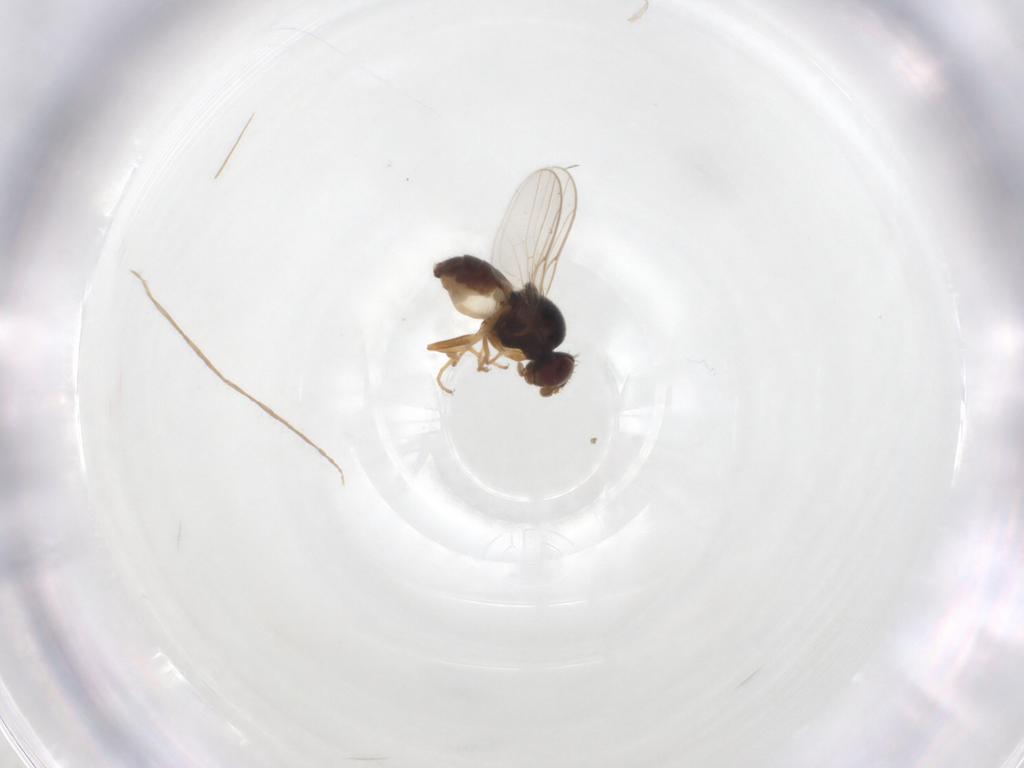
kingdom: Animalia
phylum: Arthropoda
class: Insecta
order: Diptera
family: Chloropidae
